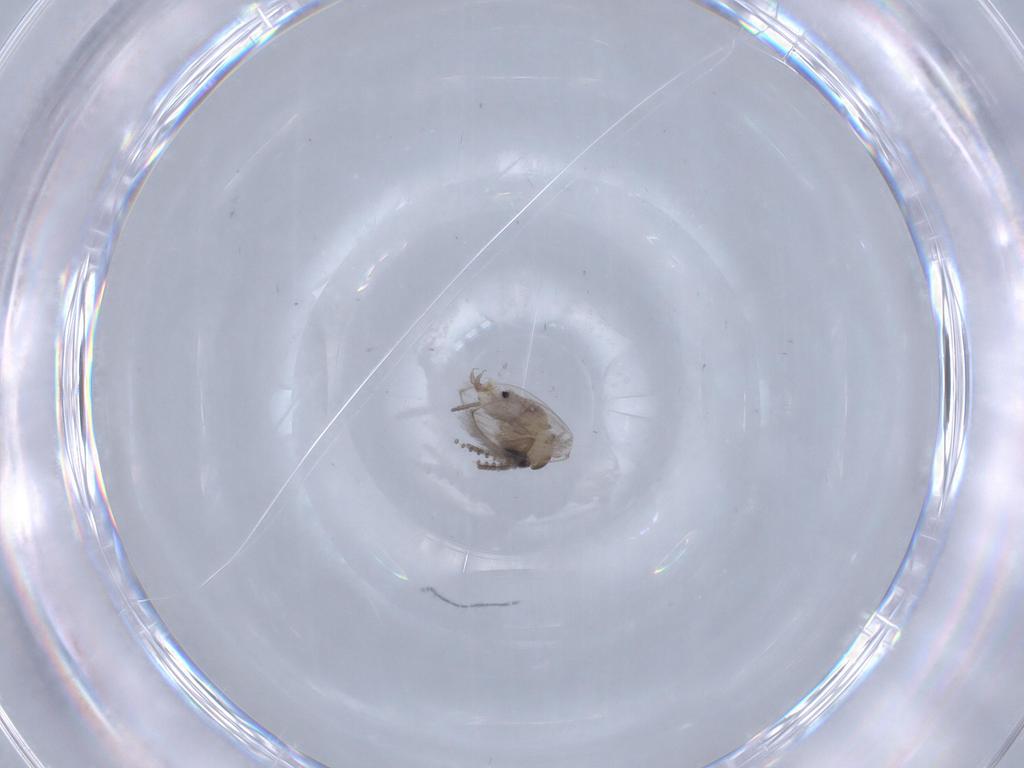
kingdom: Animalia
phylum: Arthropoda
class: Insecta
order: Diptera
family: Psychodidae
